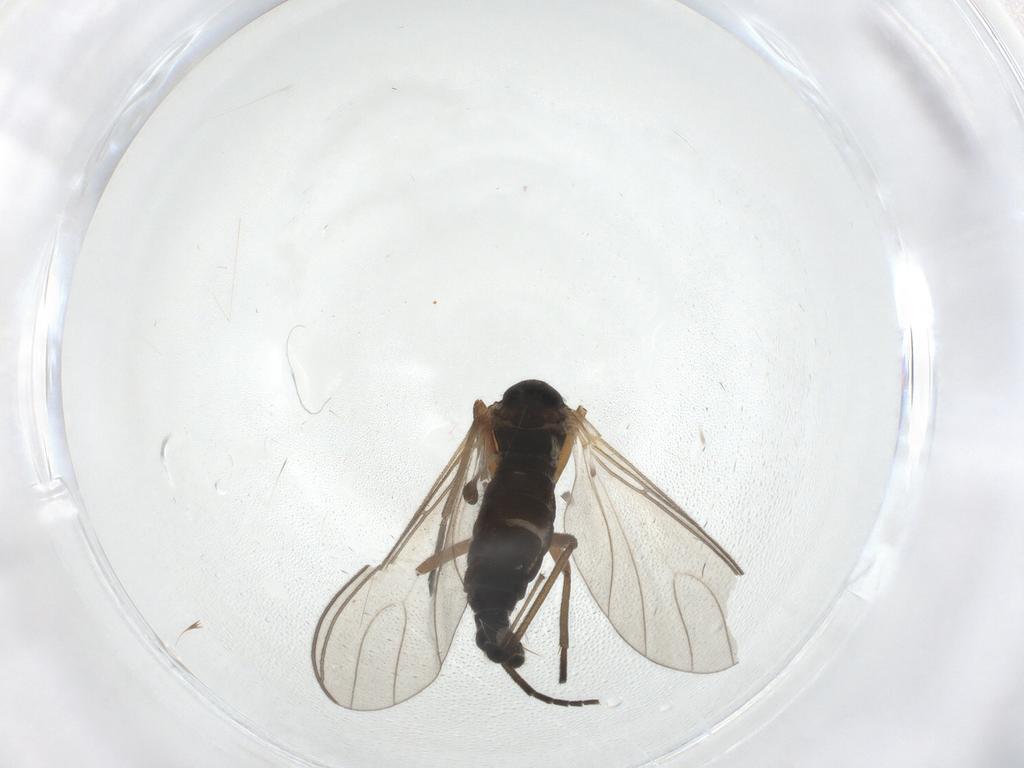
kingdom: Animalia
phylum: Arthropoda
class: Insecta
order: Diptera
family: Sciaridae
